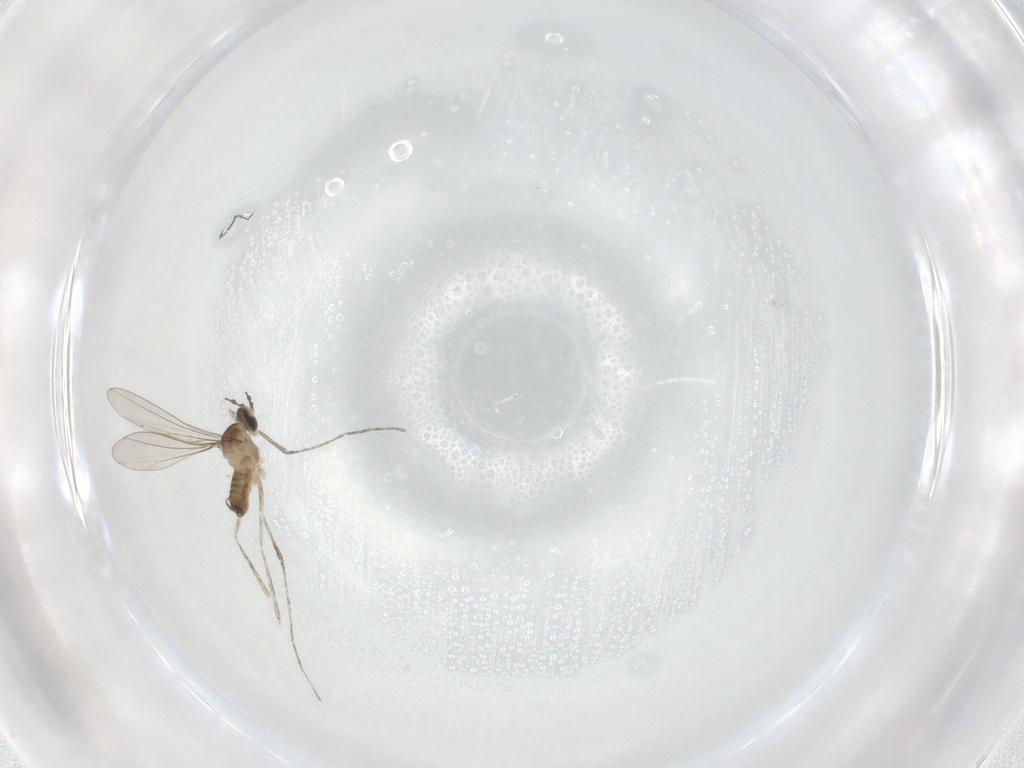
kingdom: Animalia
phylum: Arthropoda
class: Insecta
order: Diptera
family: Cecidomyiidae
